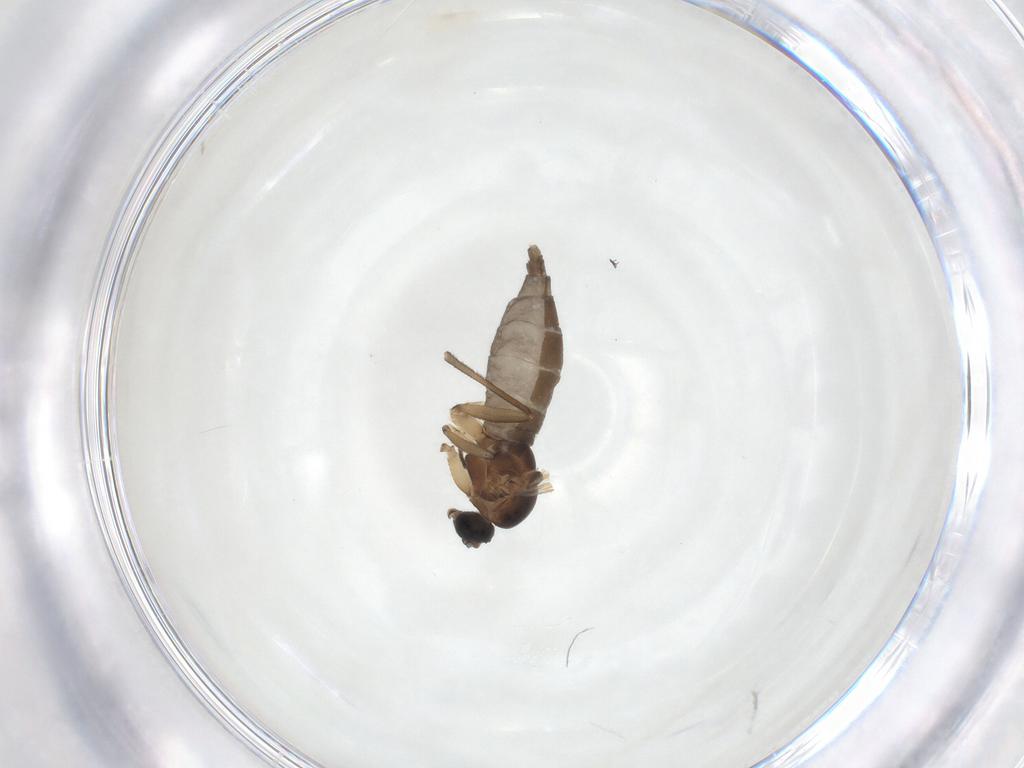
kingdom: Animalia
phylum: Arthropoda
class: Insecta
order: Diptera
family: Sciaridae
